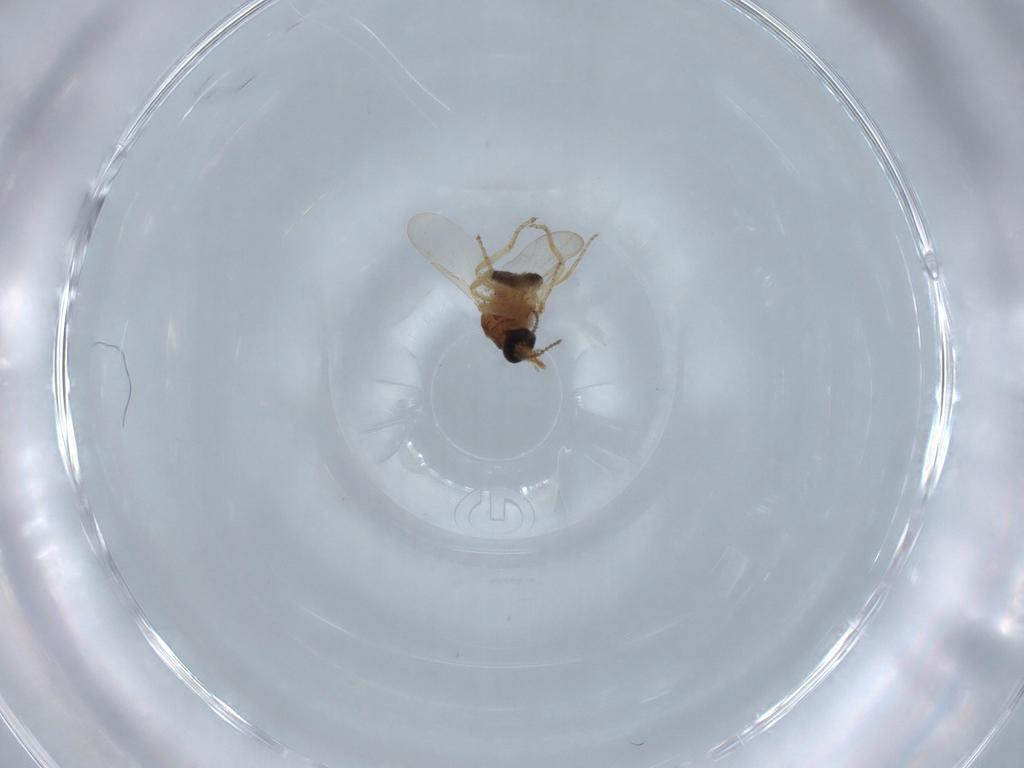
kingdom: Animalia
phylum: Arthropoda
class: Insecta
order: Diptera
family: Ceratopogonidae
